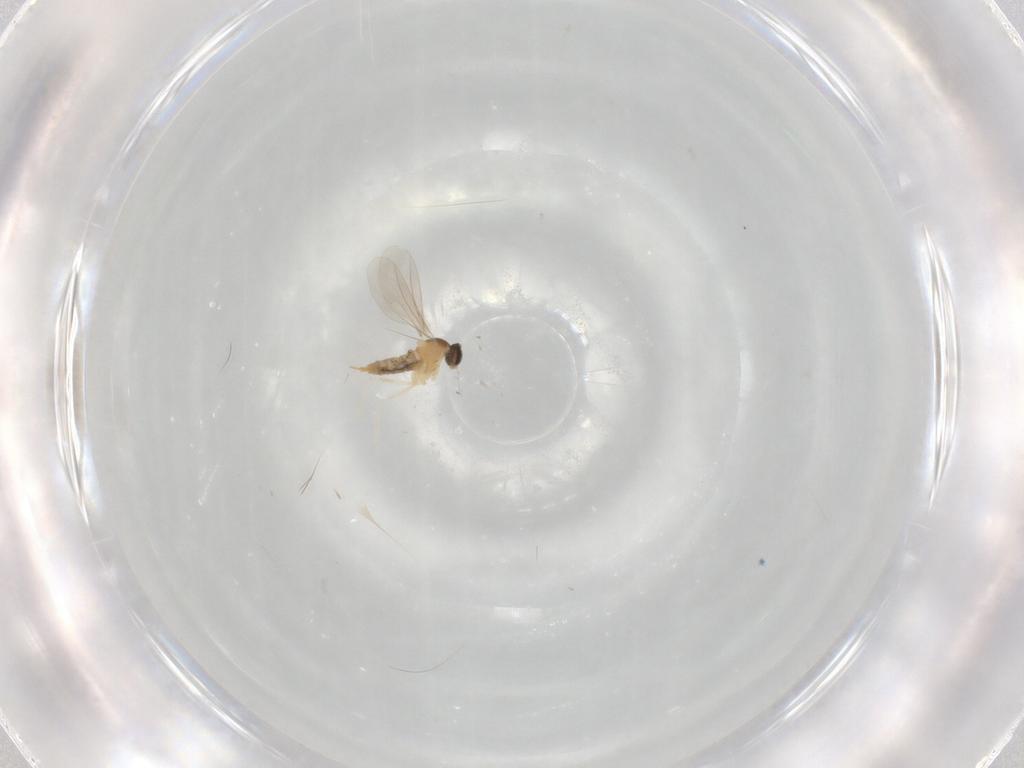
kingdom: Animalia
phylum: Arthropoda
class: Insecta
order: Diptera
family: Cecidomyiidae
